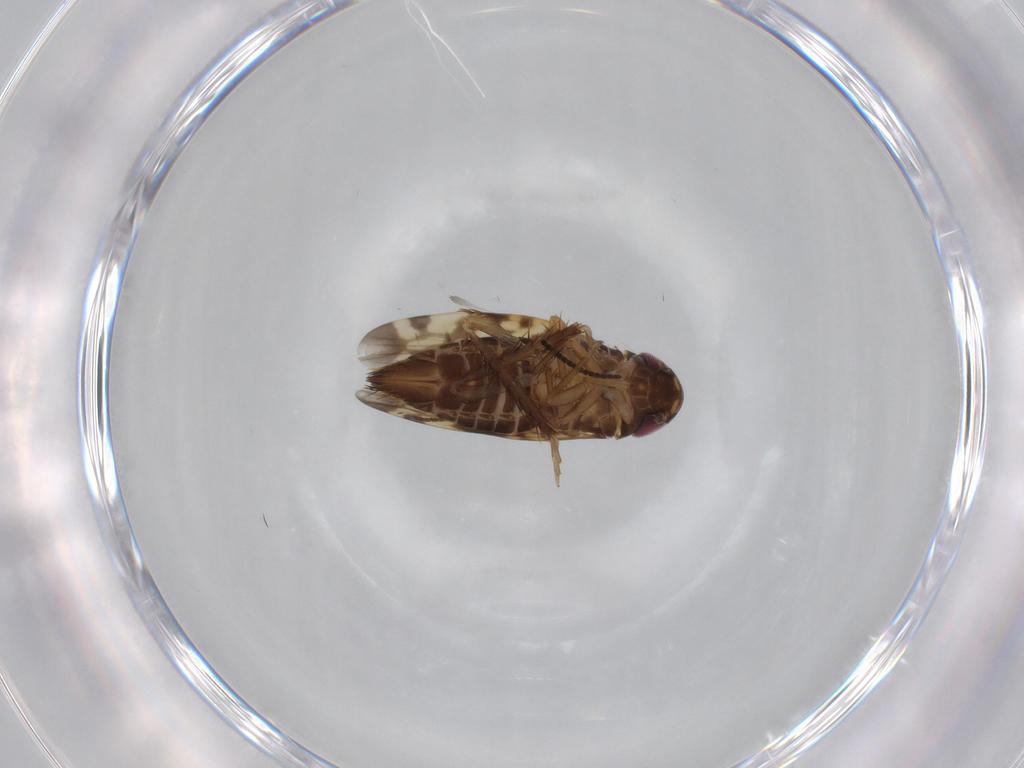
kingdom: Animalia
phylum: Arthropoda
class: Insecta
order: Hemiptera
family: Cicadellidae
